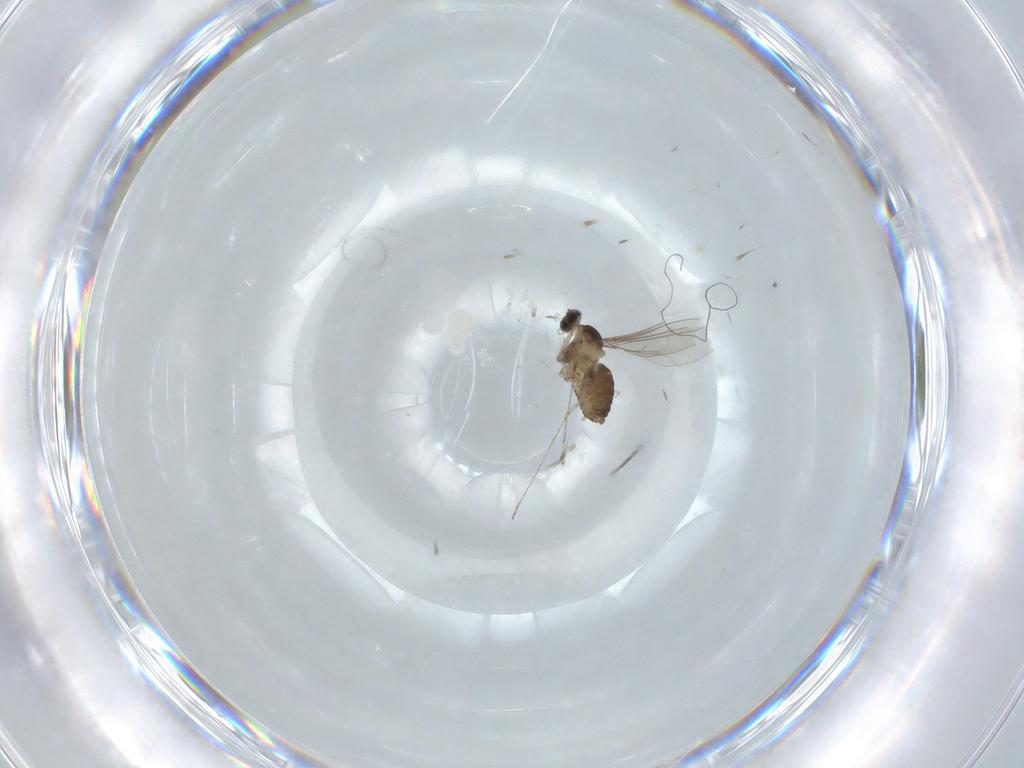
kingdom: Animalia
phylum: Arthropoda
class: Insecta
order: Diptera
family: Cecidomyiidae
